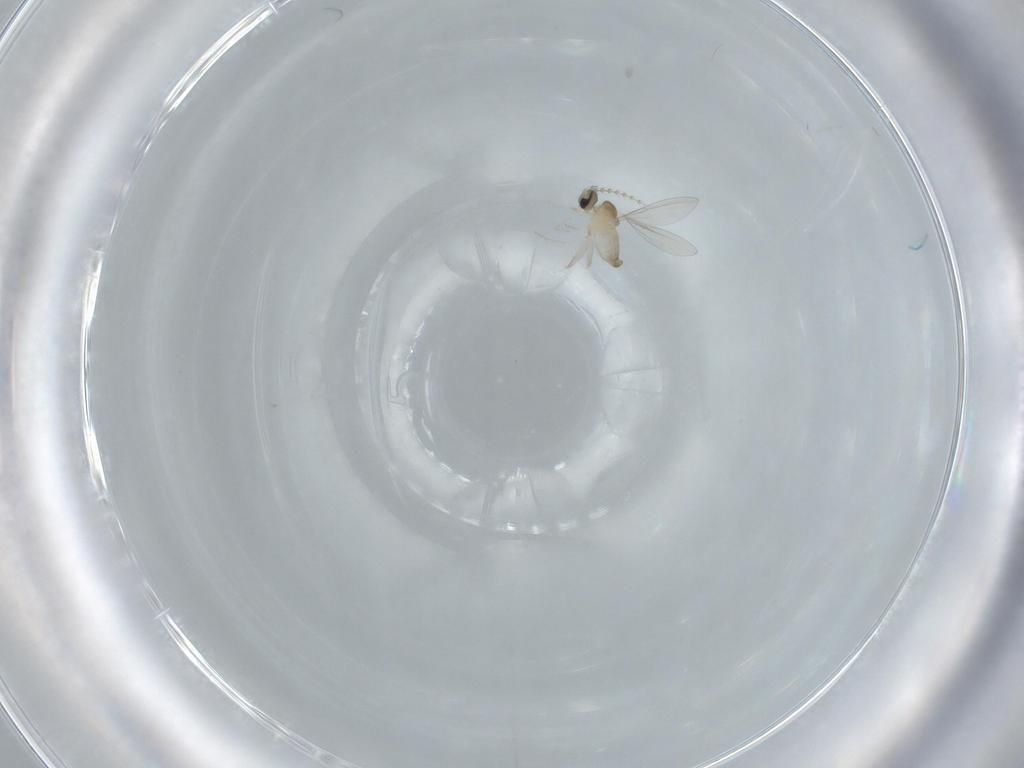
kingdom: Animalia
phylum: Arthropoda
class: Insecta
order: Diptera
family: Cecidomyiidae
